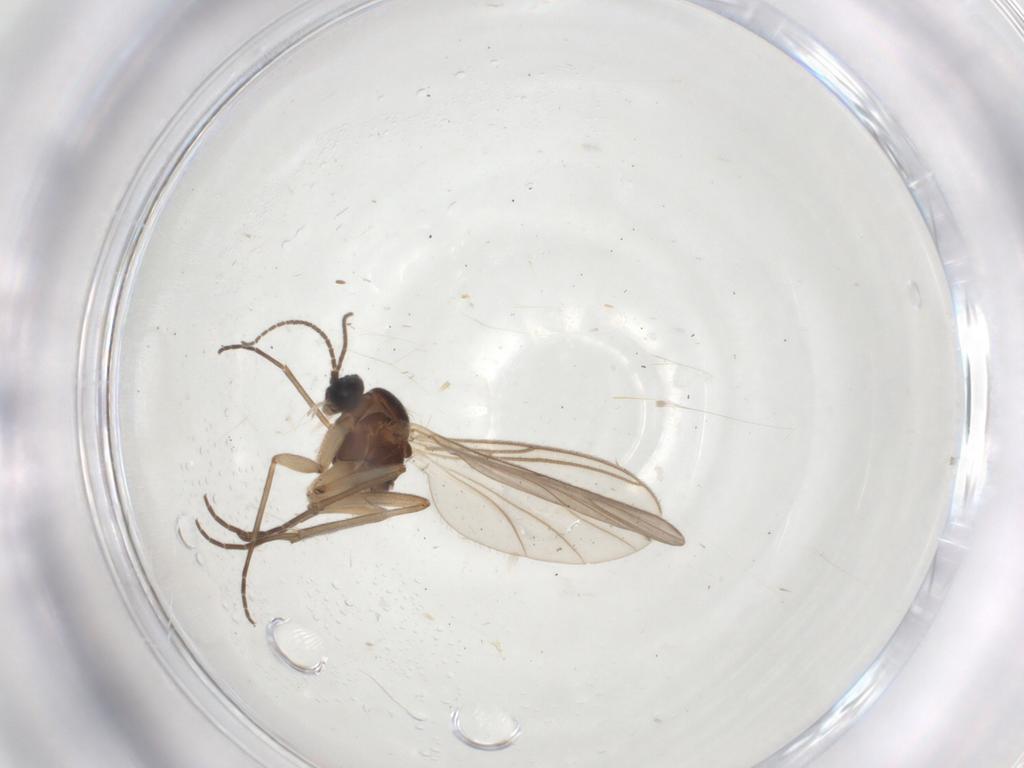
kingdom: Animalia
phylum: Arthropoda
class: Insecta
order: Diptera
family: Sciaridae
